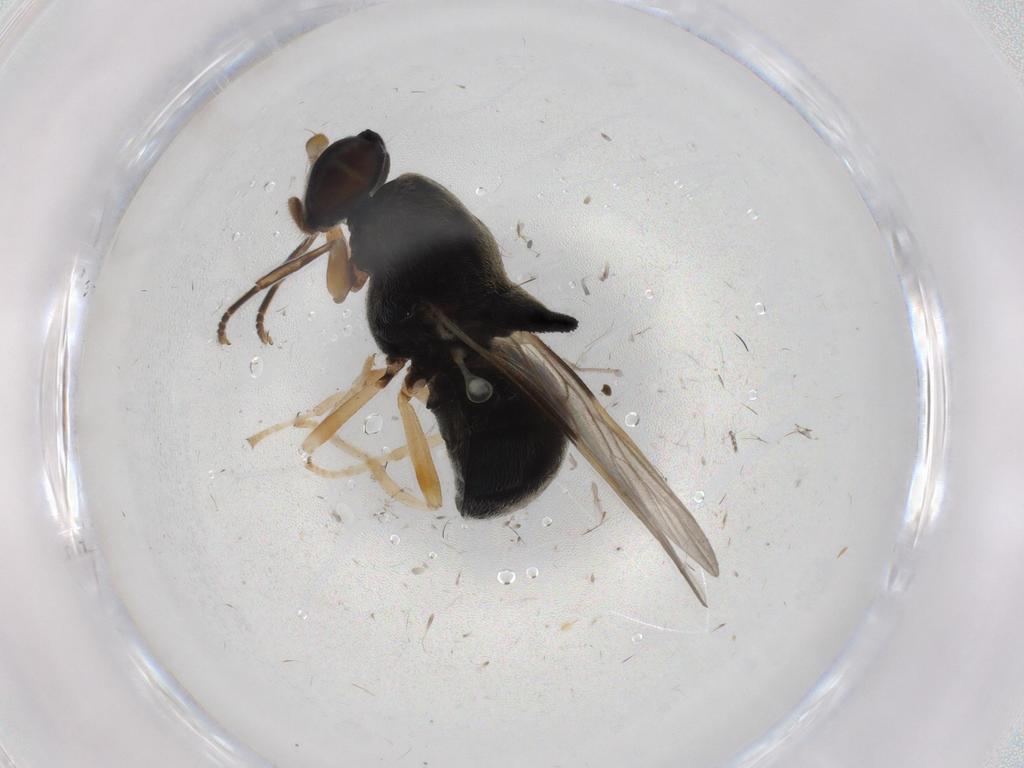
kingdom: Animalia
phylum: Arthropoda
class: Insecta
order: Diptera
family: Stratiomyidae
